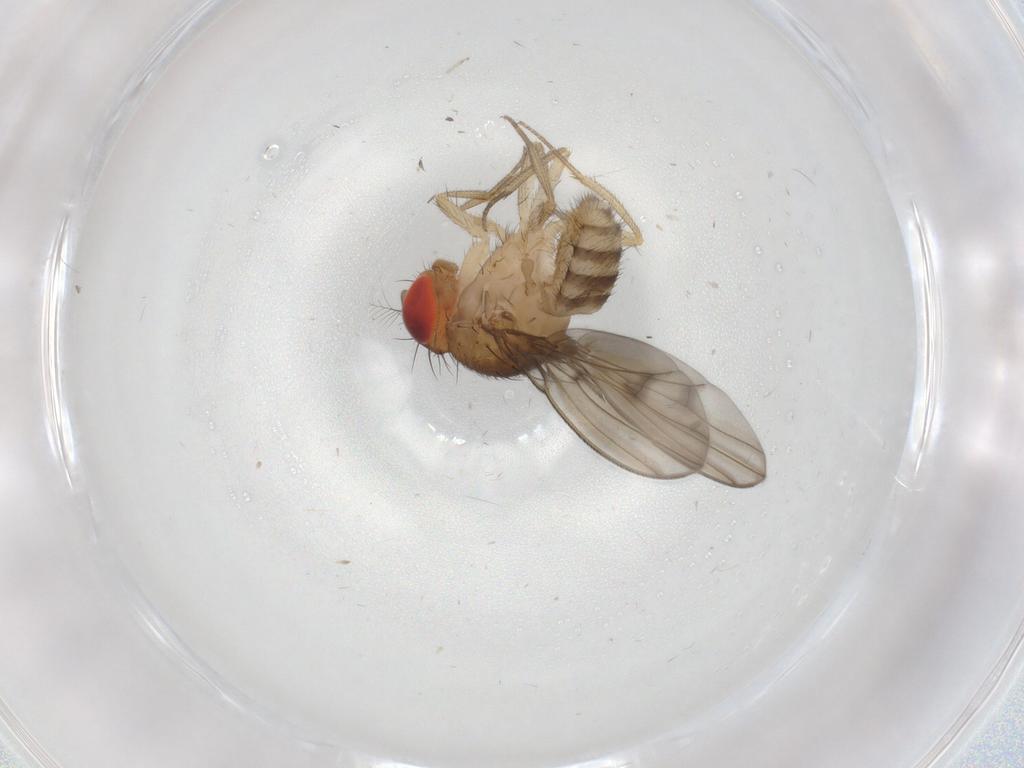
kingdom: Animalia
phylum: Arthropoda
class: Insecta
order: Diptera
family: Drosophilidae
